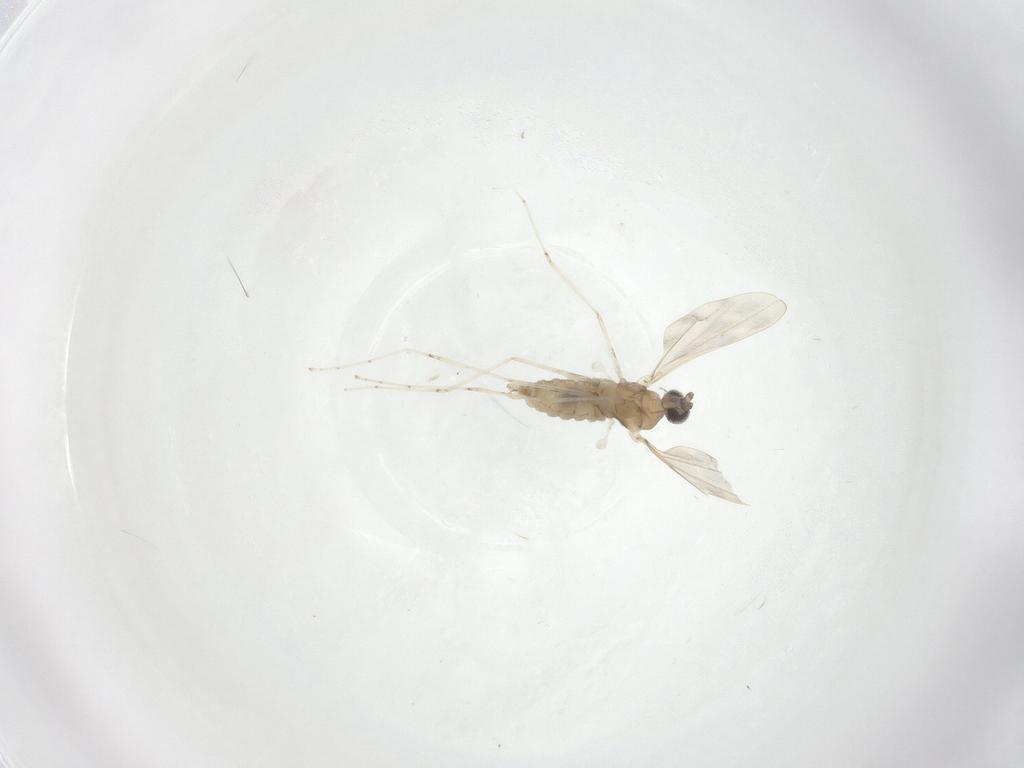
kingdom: Animalia
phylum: Arthropoda
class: Insecta
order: Diptera
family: Cecidomyiidae
